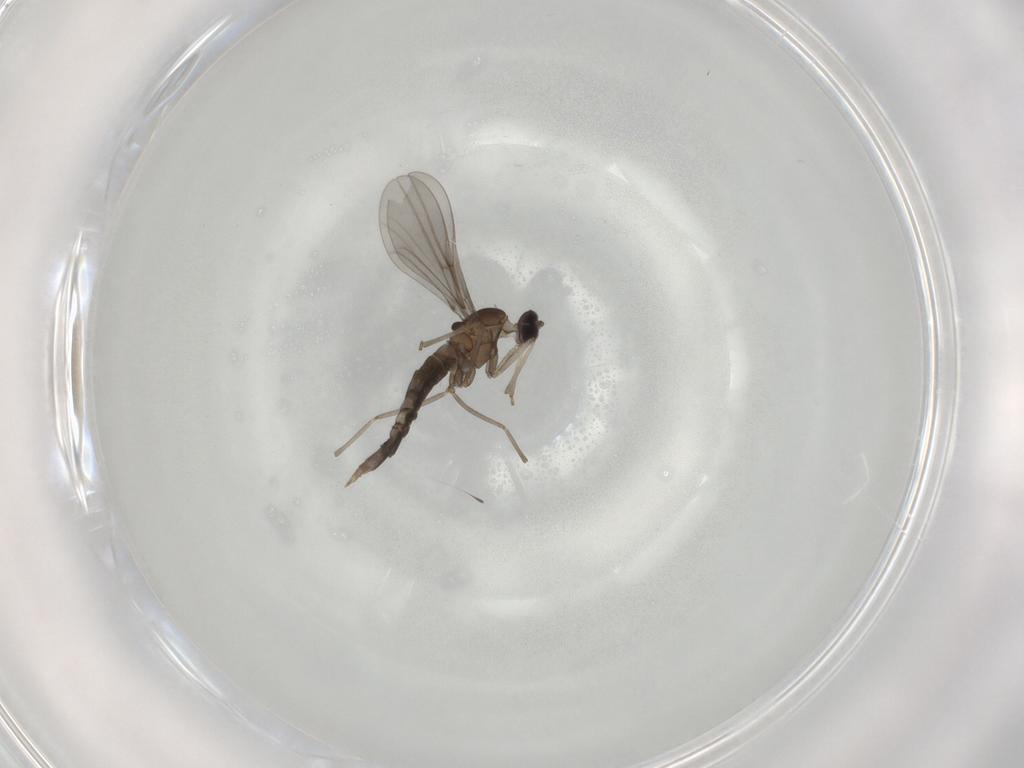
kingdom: Animalia
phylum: Arthropoda
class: Insecta
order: Diptera
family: Cecidomyiidae
